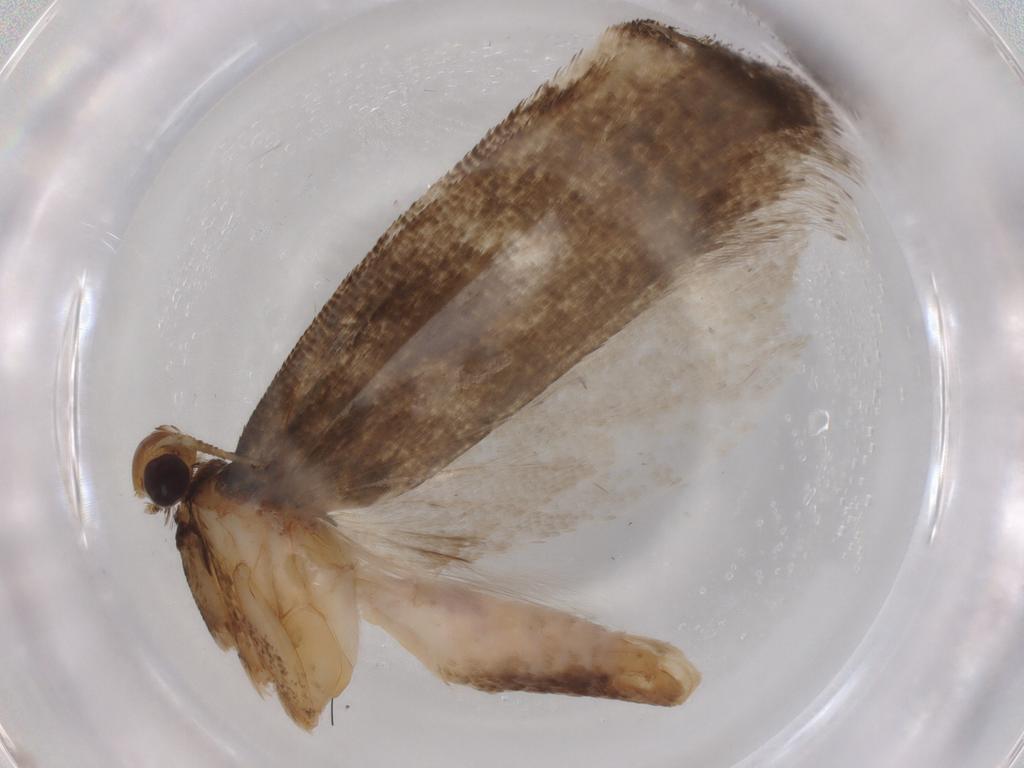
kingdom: Animalia
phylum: Arthropoda
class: Insecta
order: Lepidoptera
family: Gelechiidae
